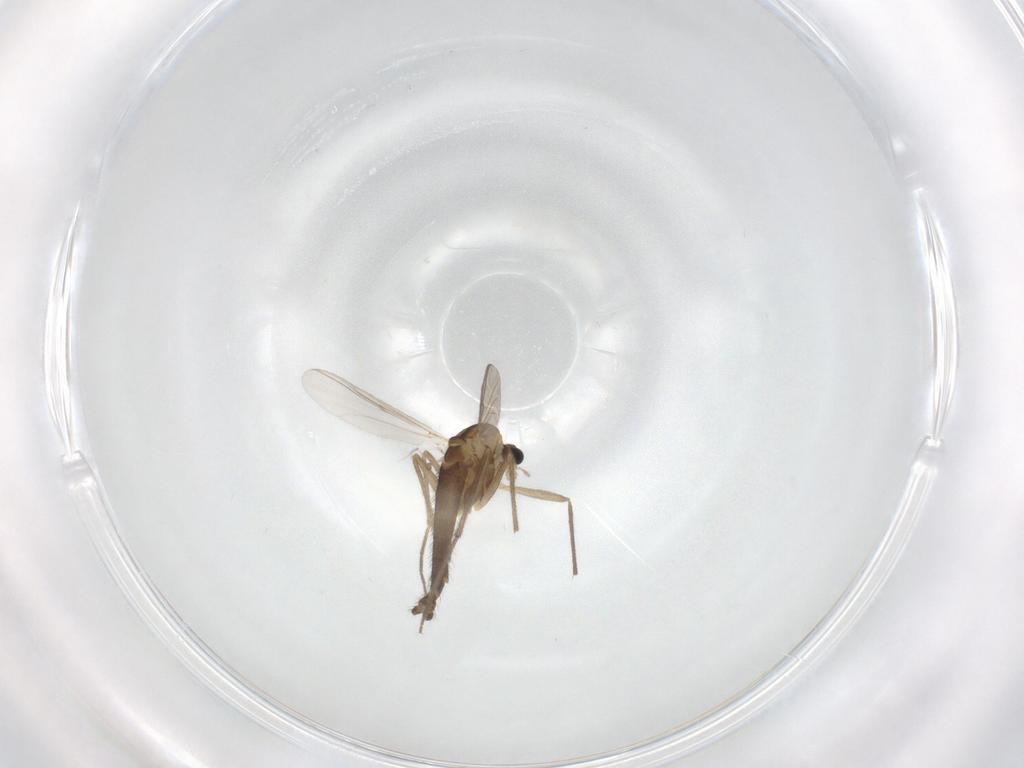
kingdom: Animalia
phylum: Arthropoda
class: Insecta
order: Diptera
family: Chironomidae
